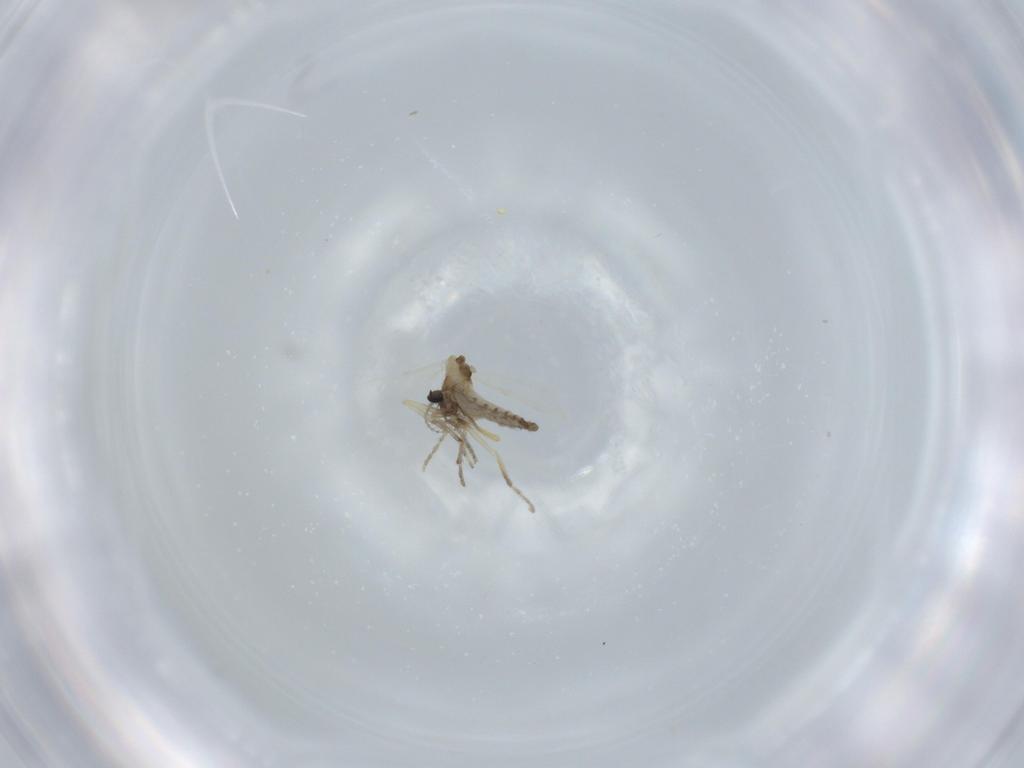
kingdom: Animalia
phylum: Arthropoda
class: Insecta
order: Diptera
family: Ceratopogonidae
